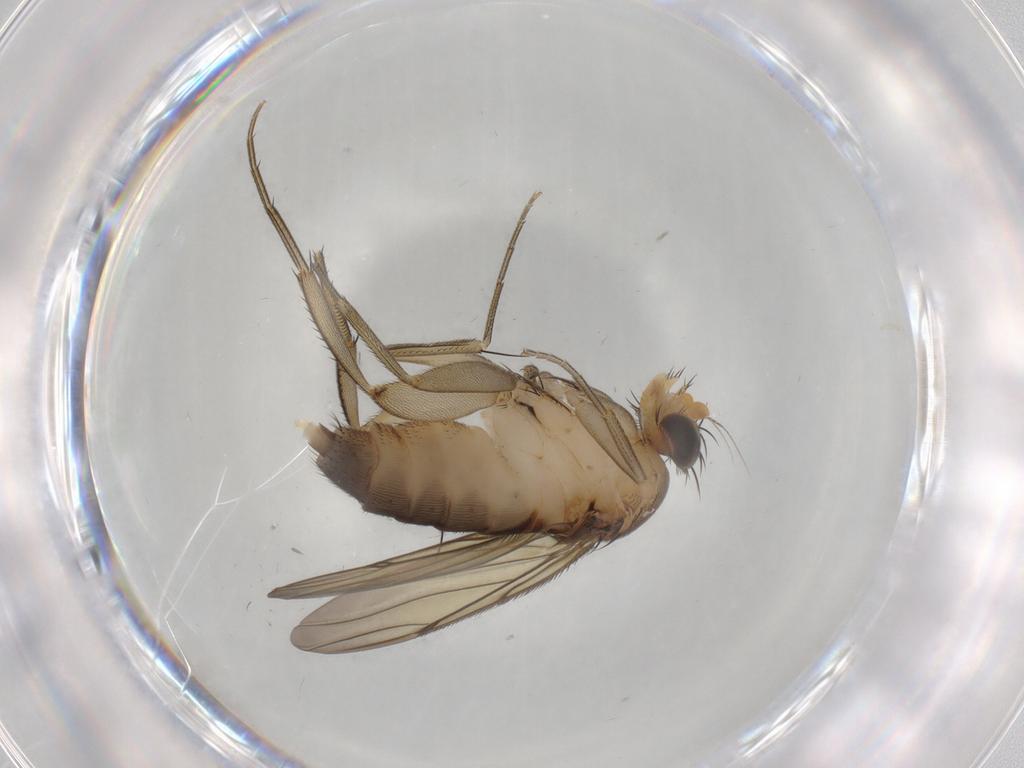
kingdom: Animalia
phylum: Arthropoda
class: Insecta
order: Diptera
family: Phoridae
